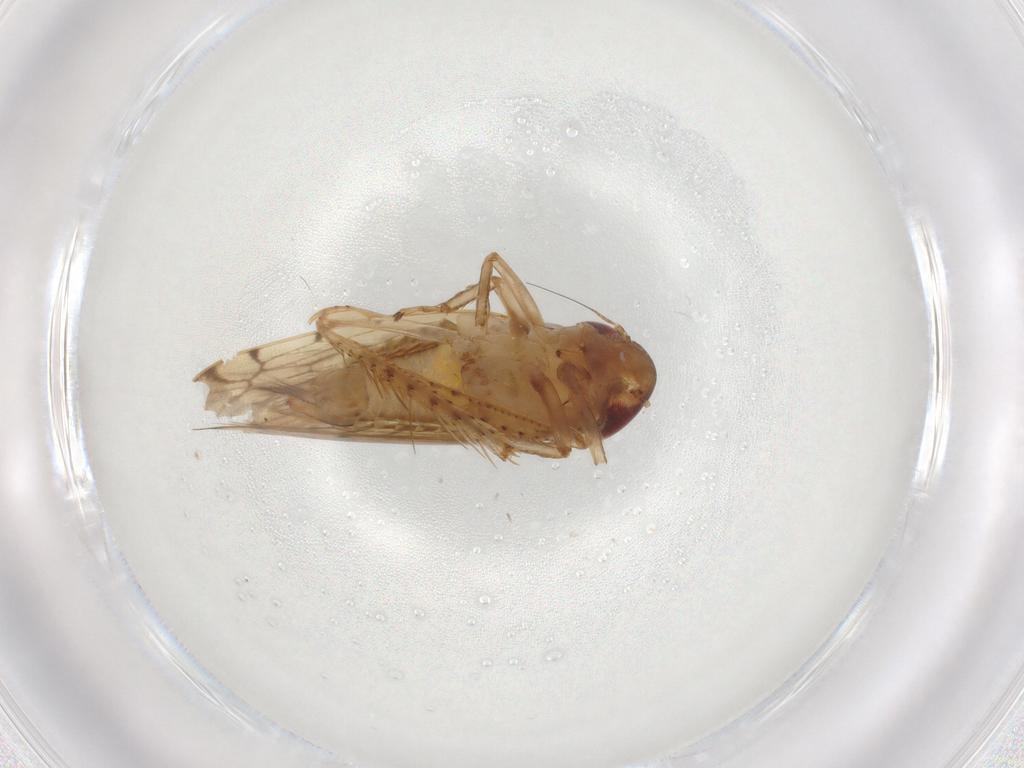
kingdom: Animalia
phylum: Arthropoda
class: Insecta
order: Hemiptera
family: Cicadellidae
